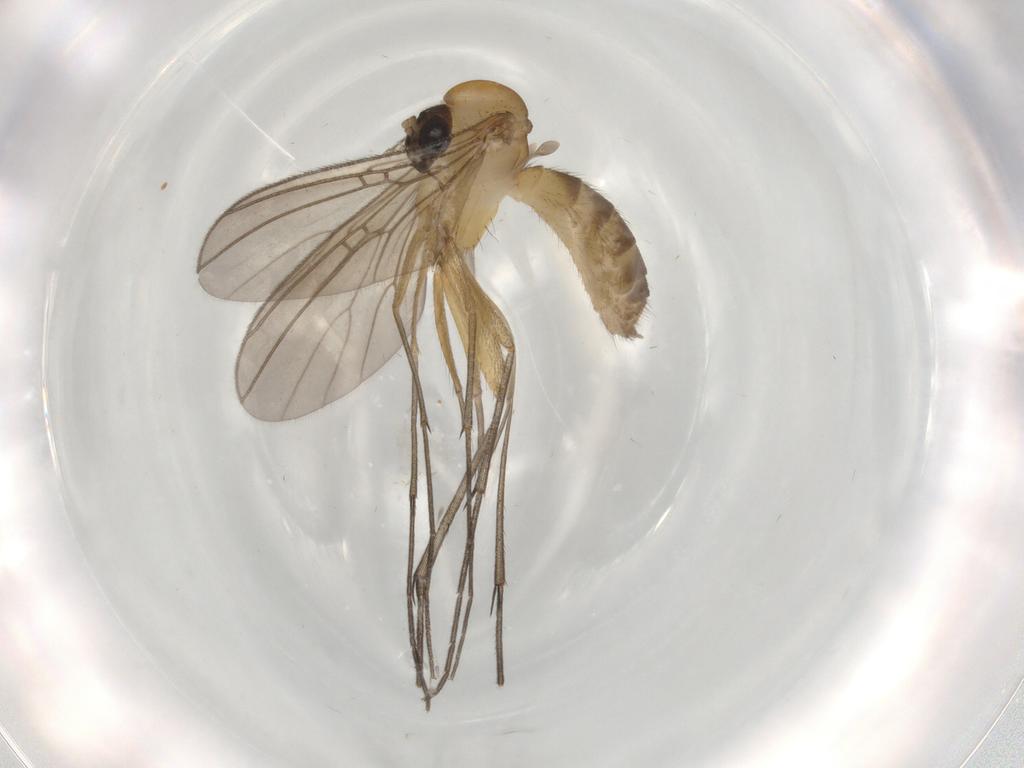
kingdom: Animalia
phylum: Arthropoda
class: Insecta
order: Diptera
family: Mycetophilidae
